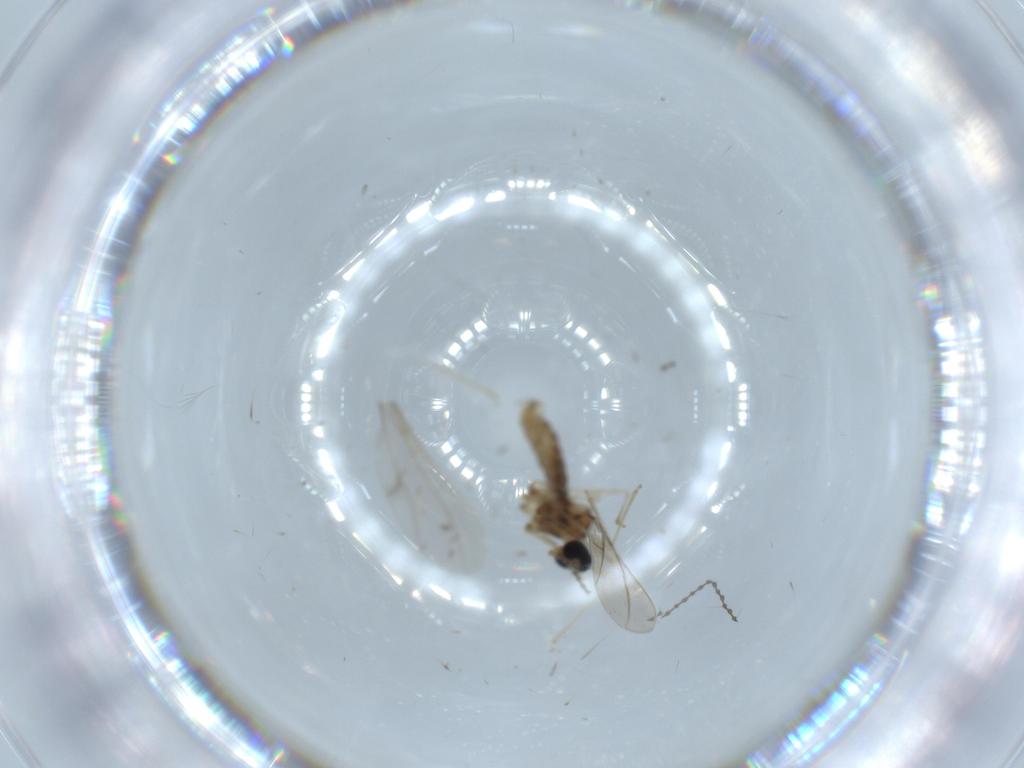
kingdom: Animalia
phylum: Arthropoda
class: Insecta
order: Diptera
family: Cecidomyiidae
